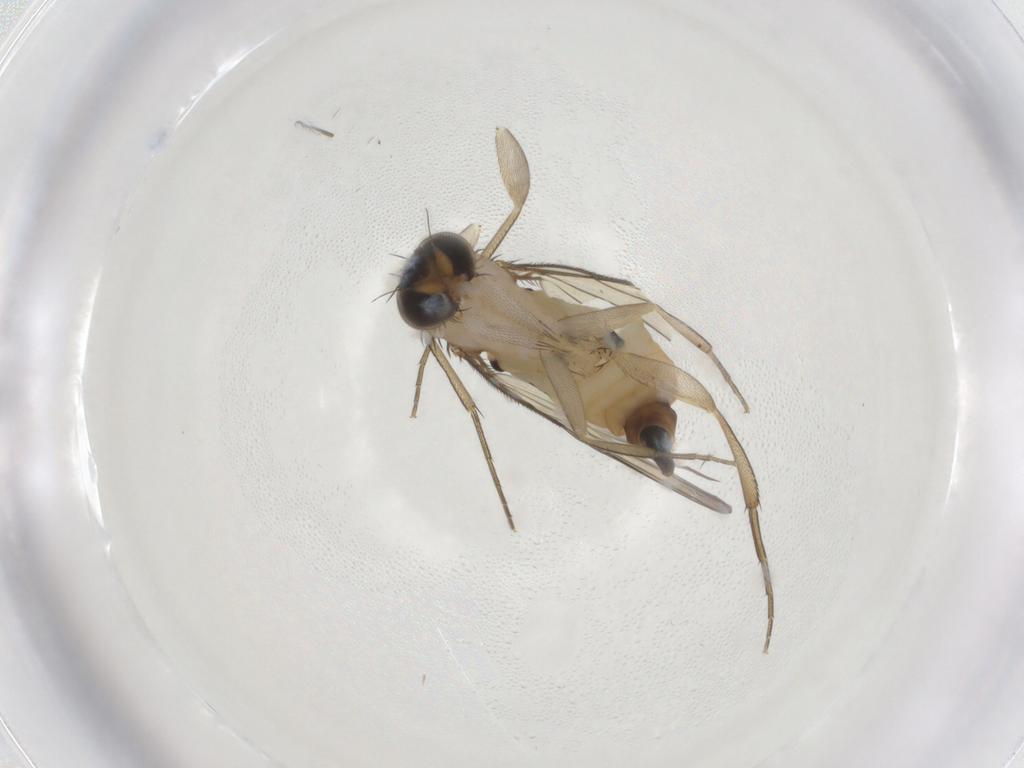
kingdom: Animalia
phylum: Arthropoda
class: Insecta
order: Diptera
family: Phoridae
